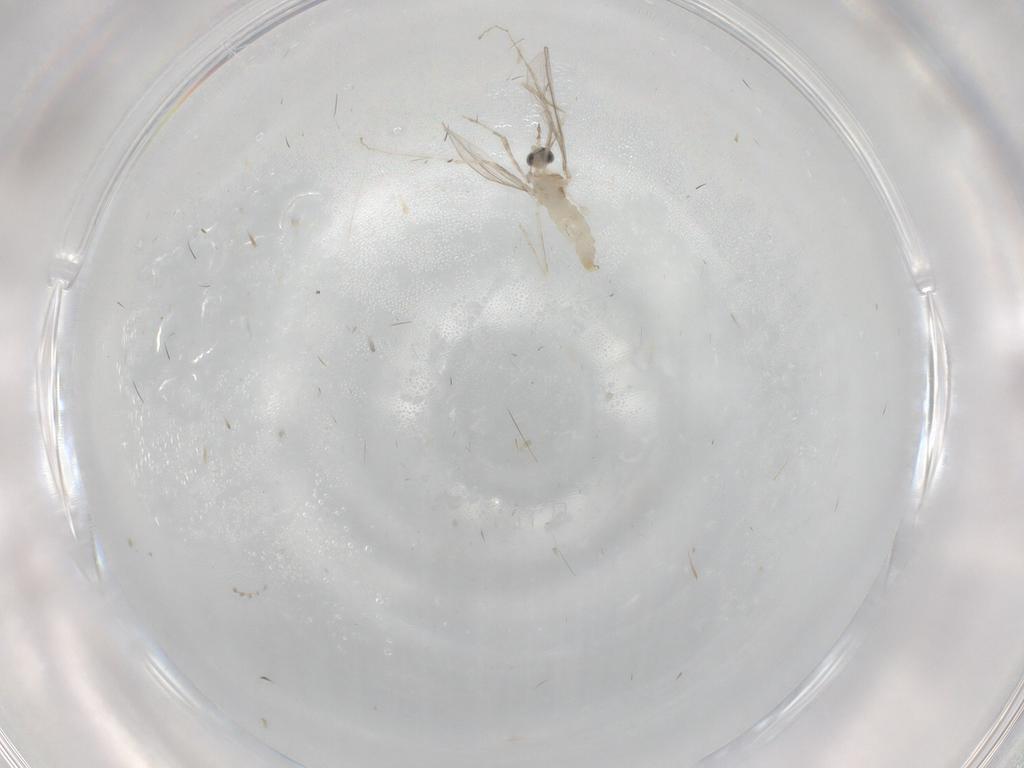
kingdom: Animalia
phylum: Arthropoda
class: Insecta
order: Diptera
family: Cecidomyiidae
